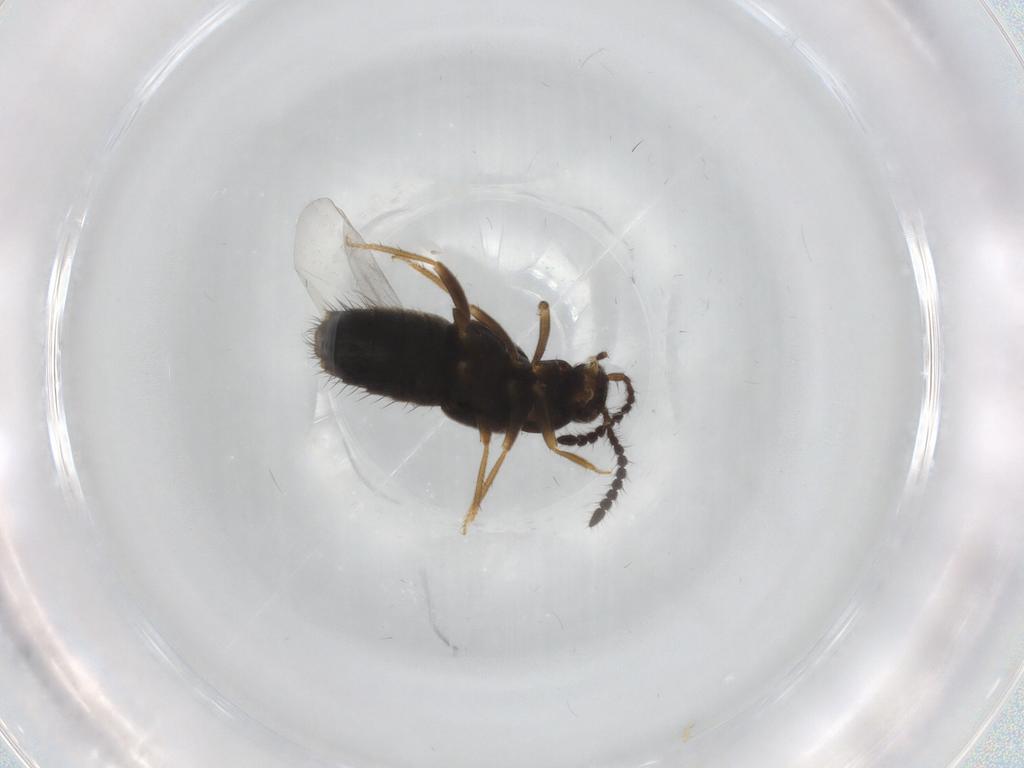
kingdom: Animalia
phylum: Arthropoda
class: Insecta
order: Coleoptera
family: Staphylinidae
